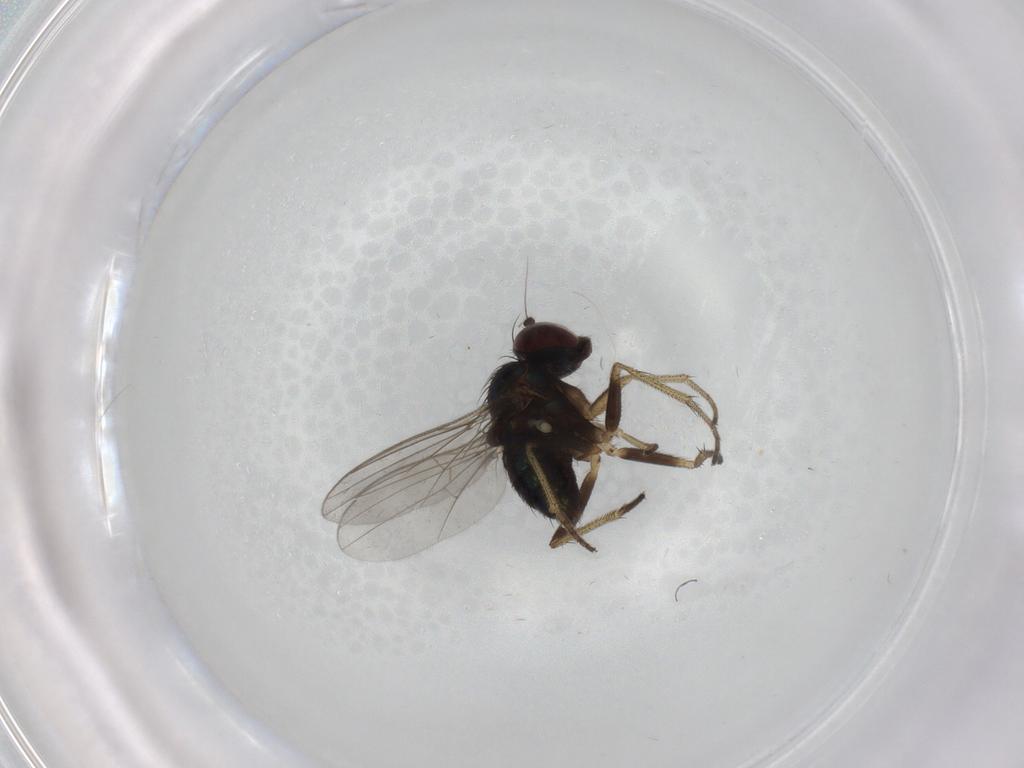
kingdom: Animalia
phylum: Arthropoda
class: Insecta
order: Diptera
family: Dolichopodidae
